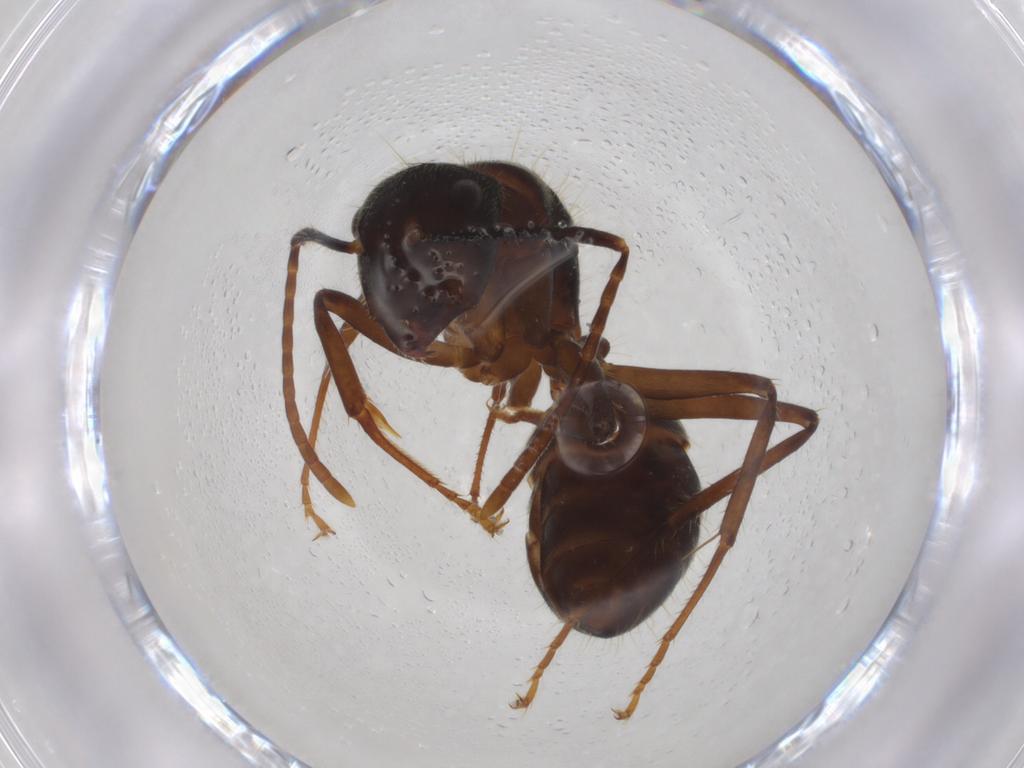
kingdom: Animalia
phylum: Arthropoda
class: Insecta
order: Hymenoptera
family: Formicidae
